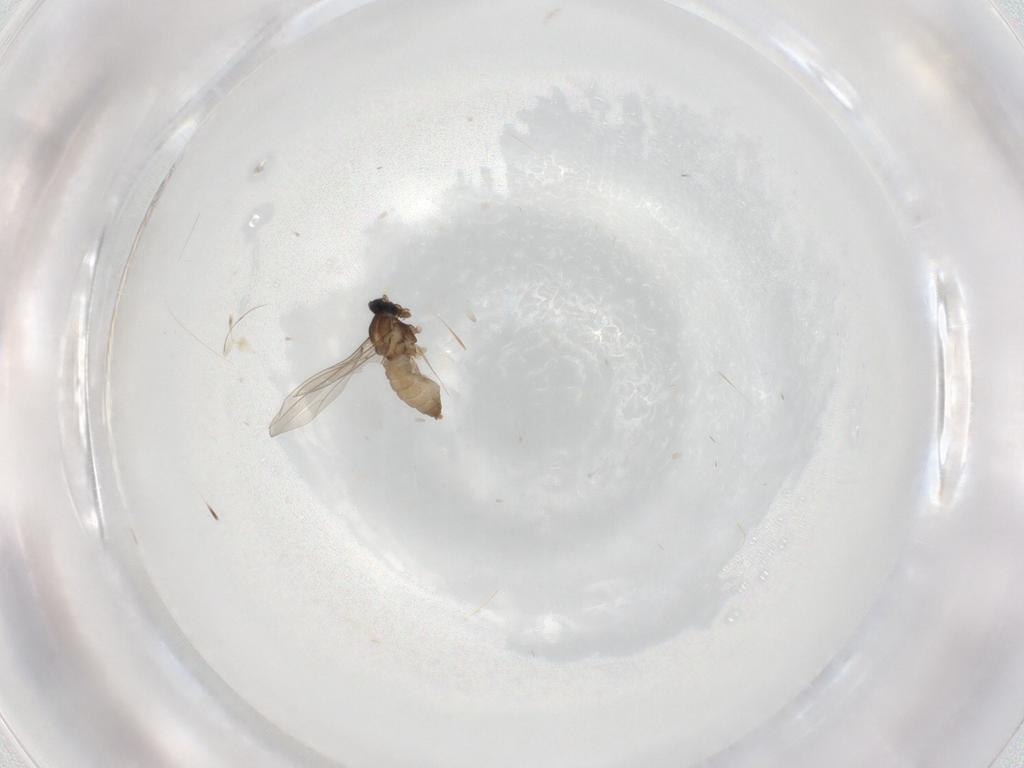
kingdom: Animalia
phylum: Arthropoda
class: Insecta
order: Diptera
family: Cecidomyiidae
